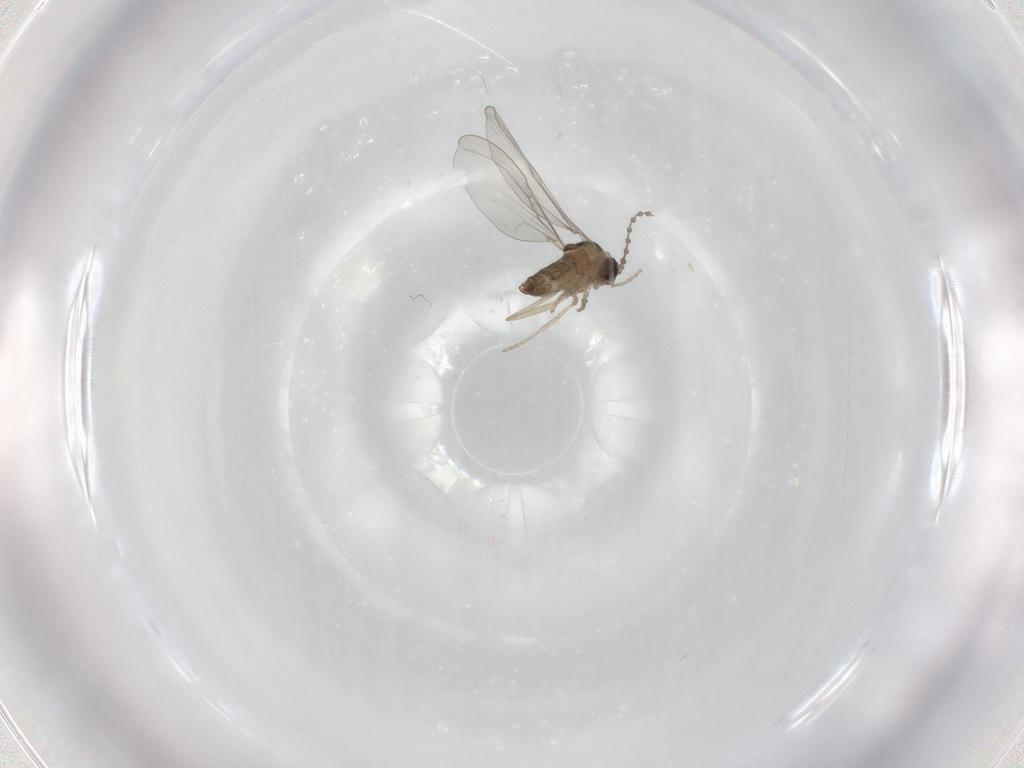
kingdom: Animalia
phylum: Arthropoda
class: Insecta
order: Diptera
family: Cecidomyiidae
